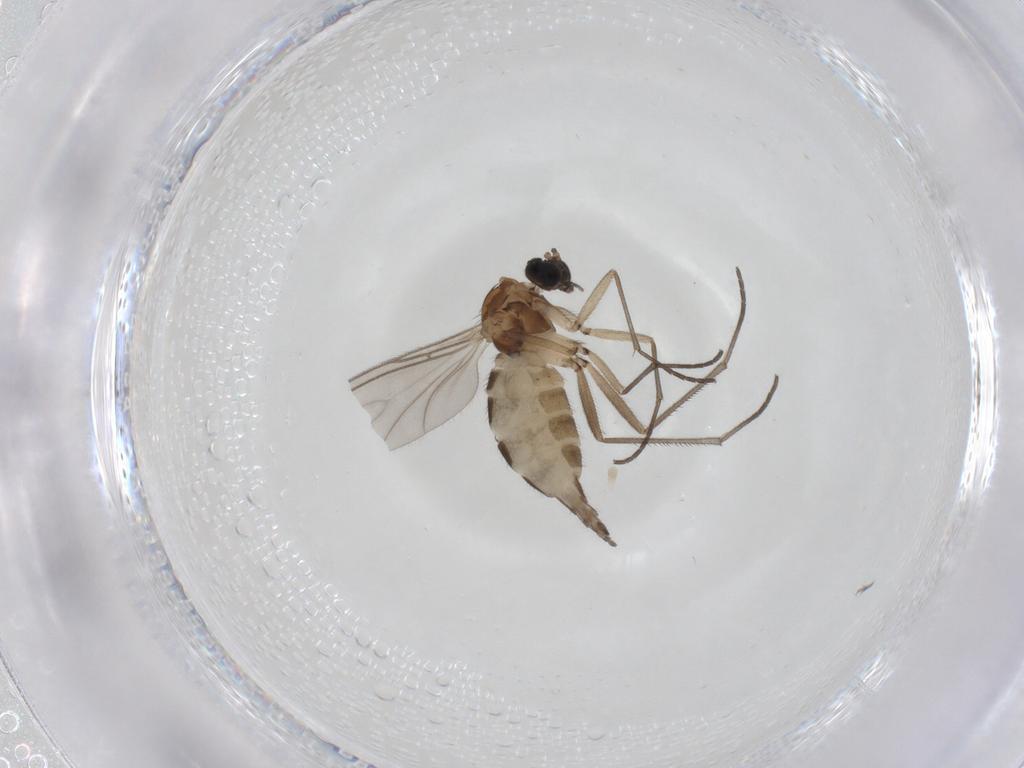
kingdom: Animalia
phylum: Arthropoda
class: Insecta
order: Diptera
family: Sciaridae
